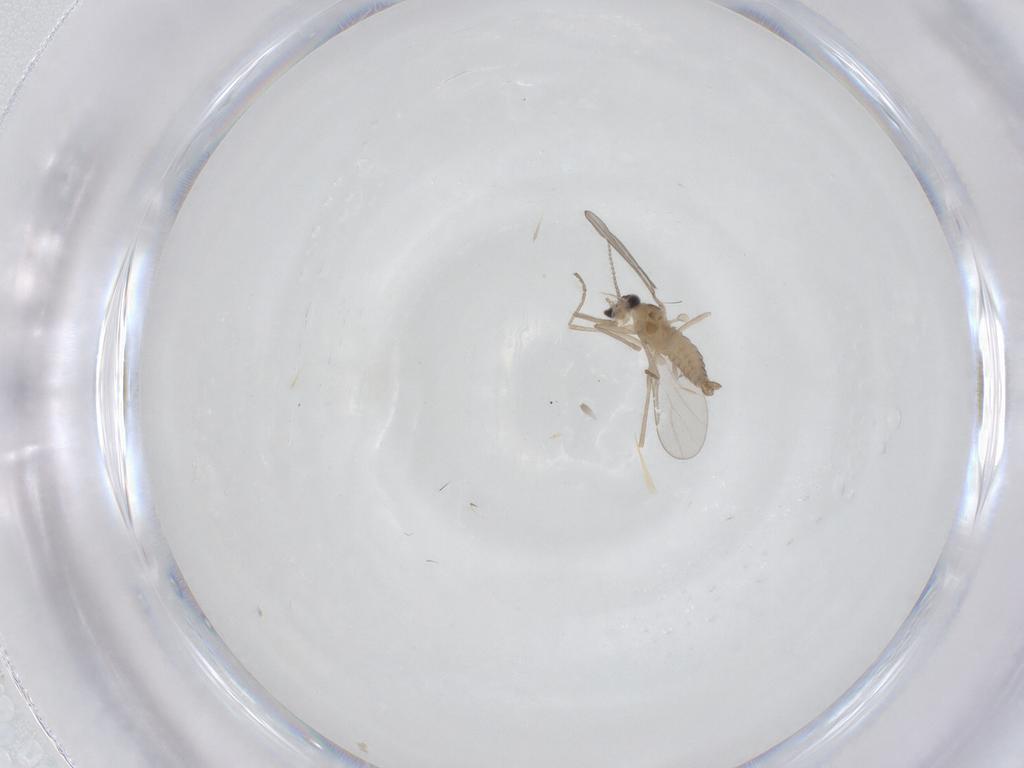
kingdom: Animalia
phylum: Arthropoda
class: Insecta
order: Diptera
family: Cecidomyiidae
